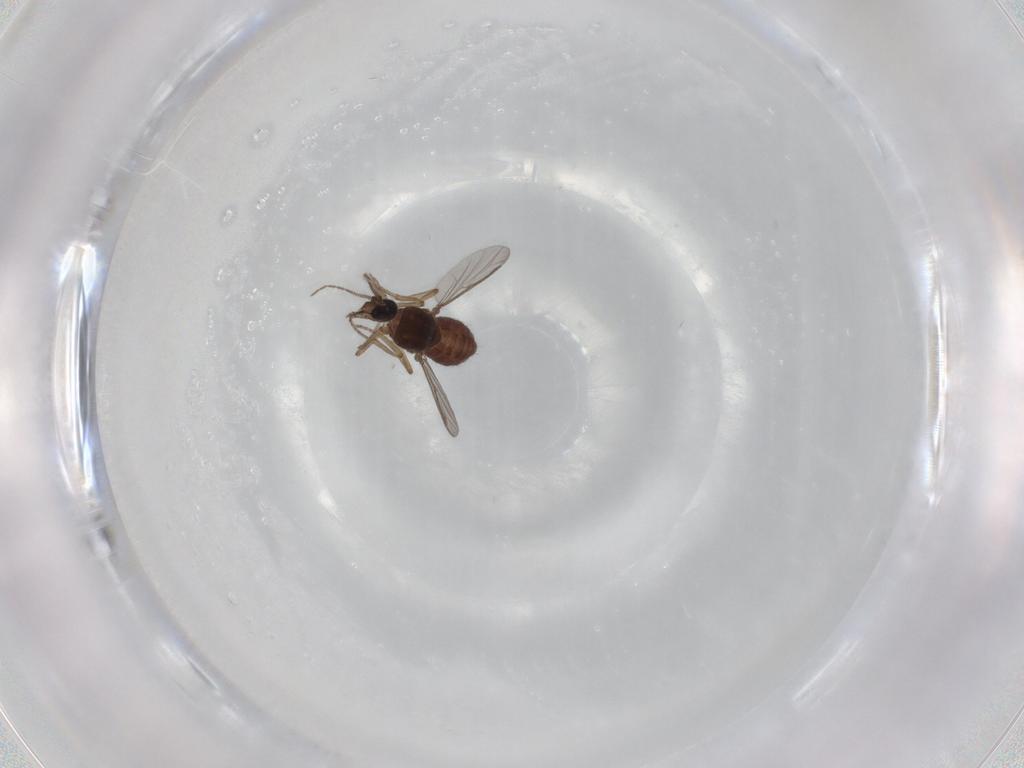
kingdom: Animalia
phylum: Arthropoda
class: Insecta
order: Diptera
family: Ceratopogonidae
